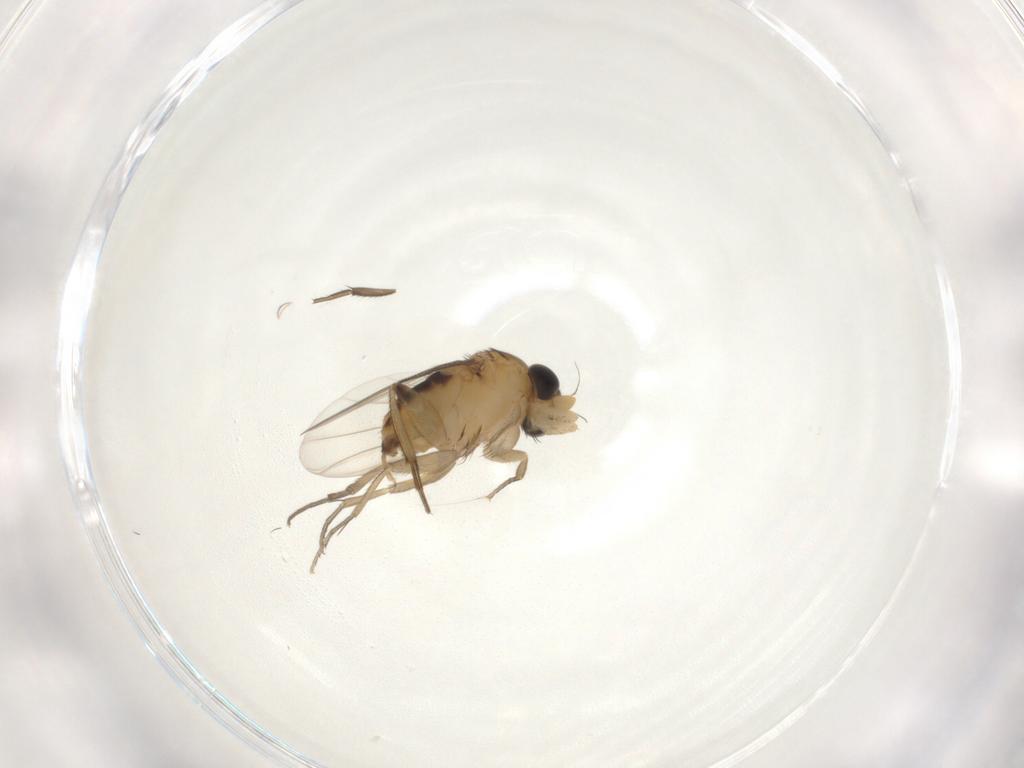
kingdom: Animalia
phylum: Arthropoda
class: Insecta
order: Diptera
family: Phoridae
